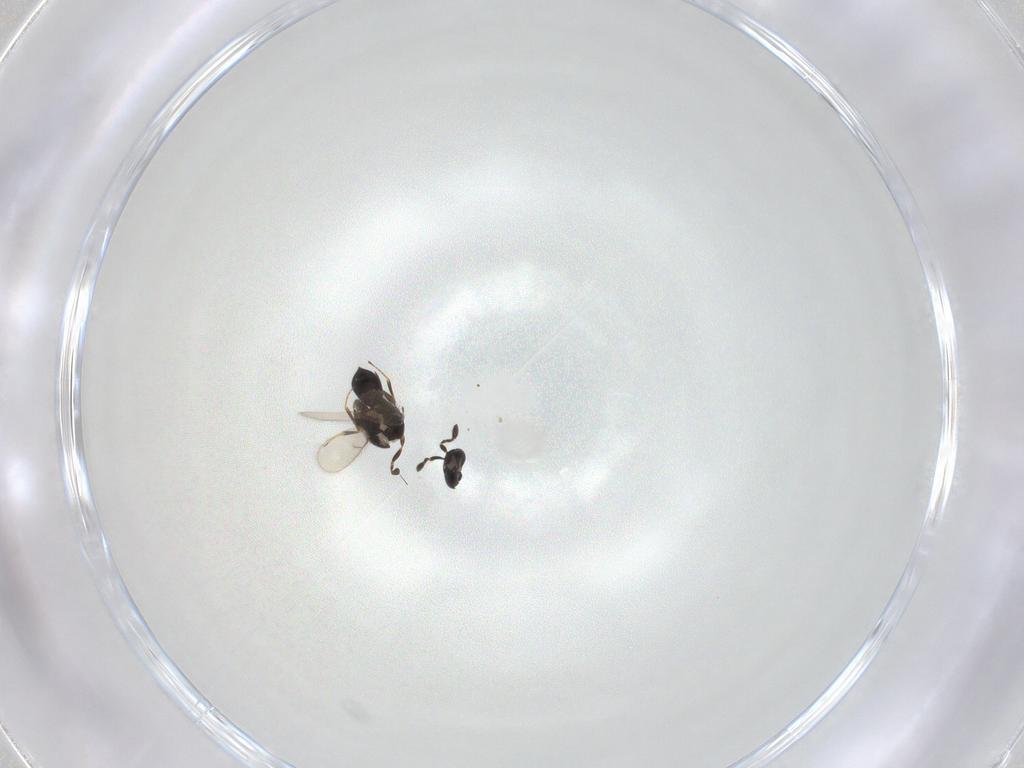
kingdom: Animalia
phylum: Arthropoda
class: Insecta
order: Hymenoptera
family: Scelionidae
